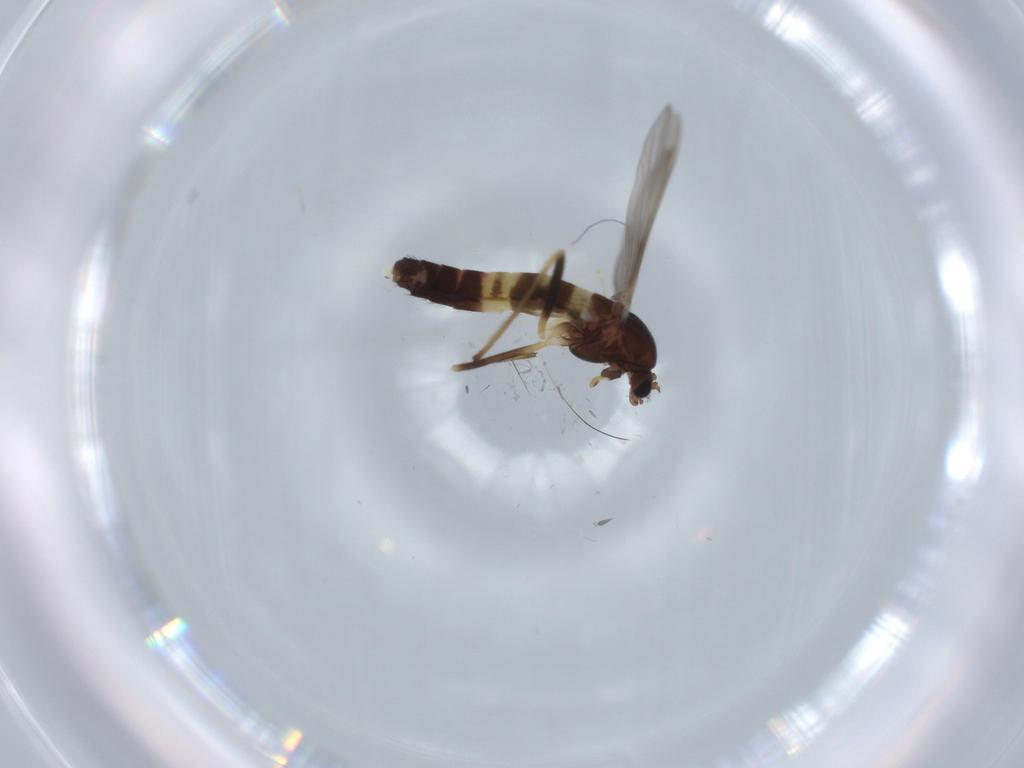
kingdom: Animalia
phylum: Arthropoda
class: Insecta
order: Diptera
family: Chironomidae
